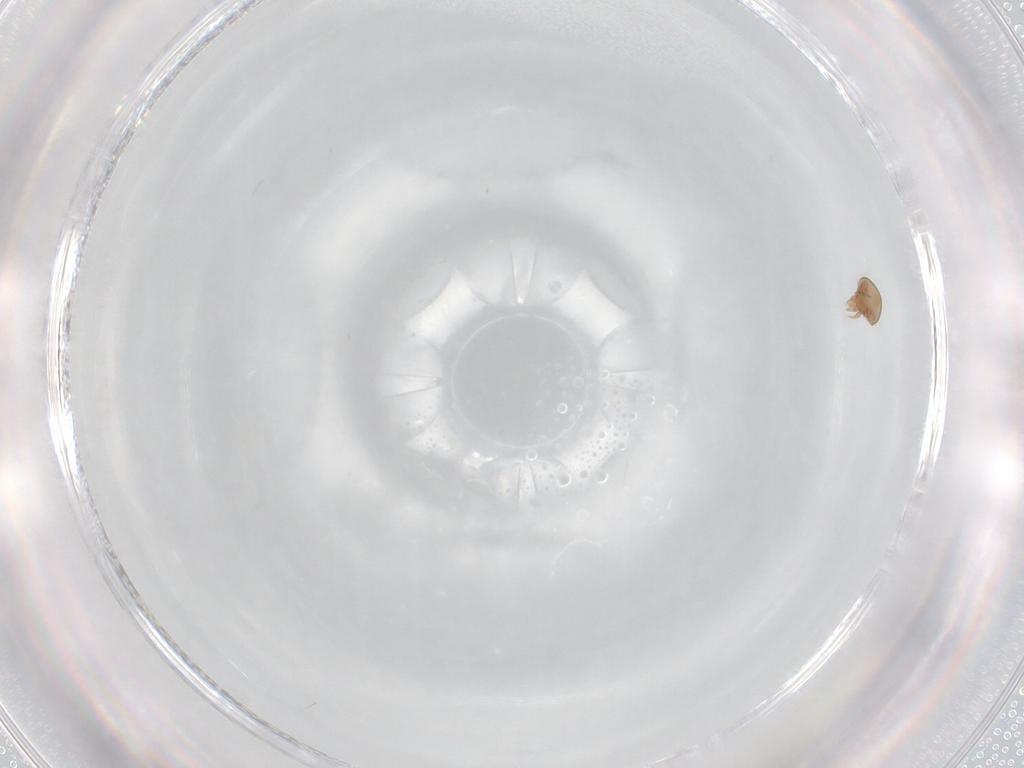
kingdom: Animalia
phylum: Arthropoda
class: Arachnida
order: Mesostigmata
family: Trematuridae
